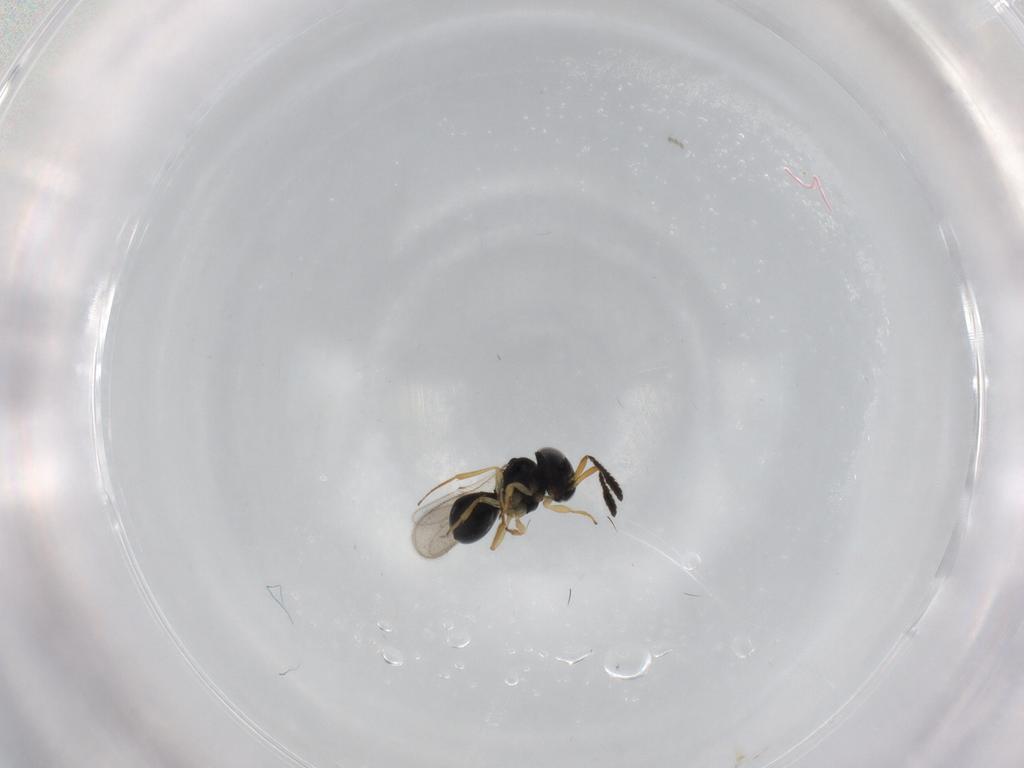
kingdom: Animalia
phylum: Arthropoda
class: Insecta
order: Hymenoptera
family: Scelionidae
